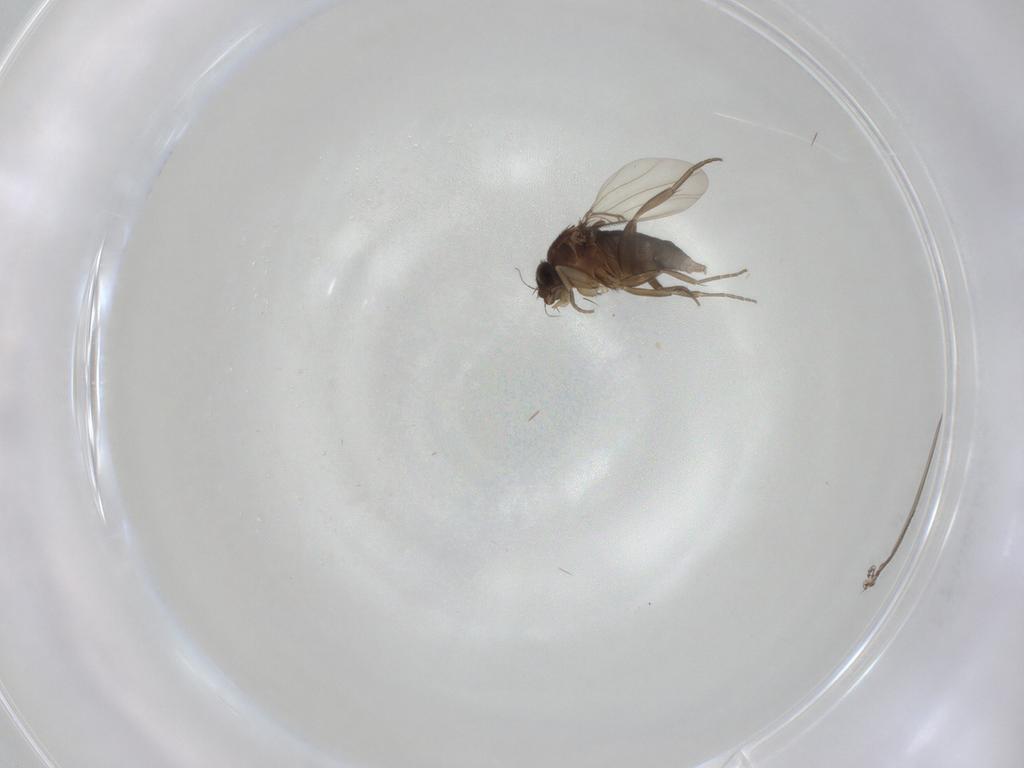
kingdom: Animalia
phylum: Arthropoda
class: Insecta
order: Diptera
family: Phoridae
